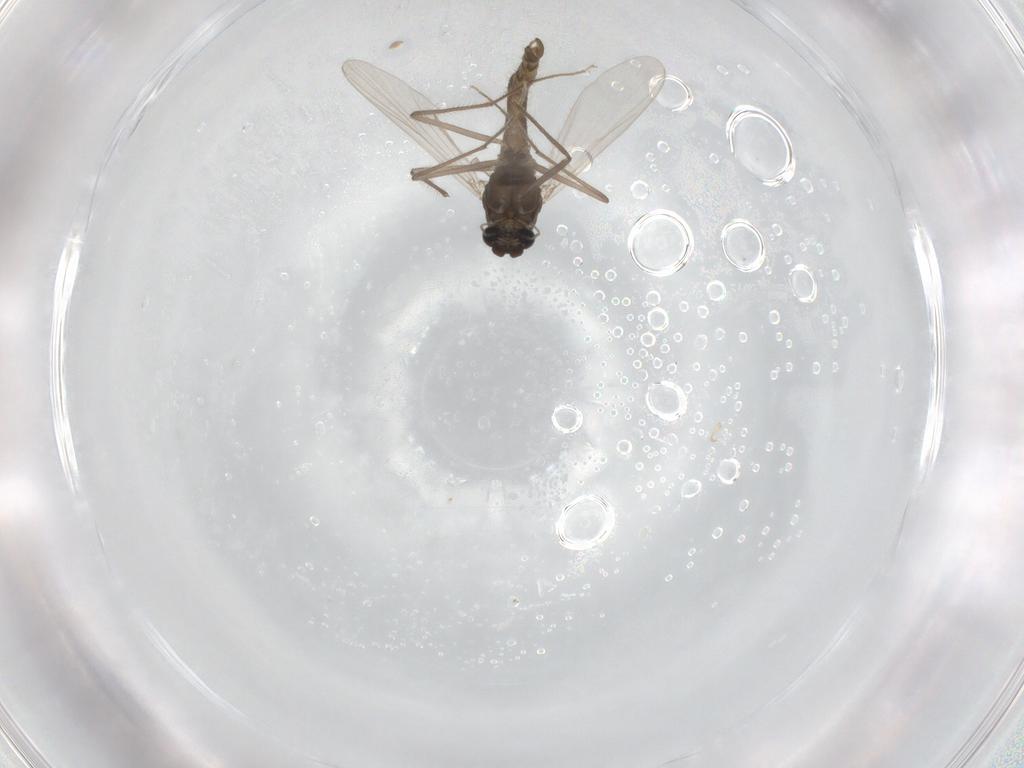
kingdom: Animalia
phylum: Arthropoda
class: Insecta
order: Diptera
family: Chironomidae
